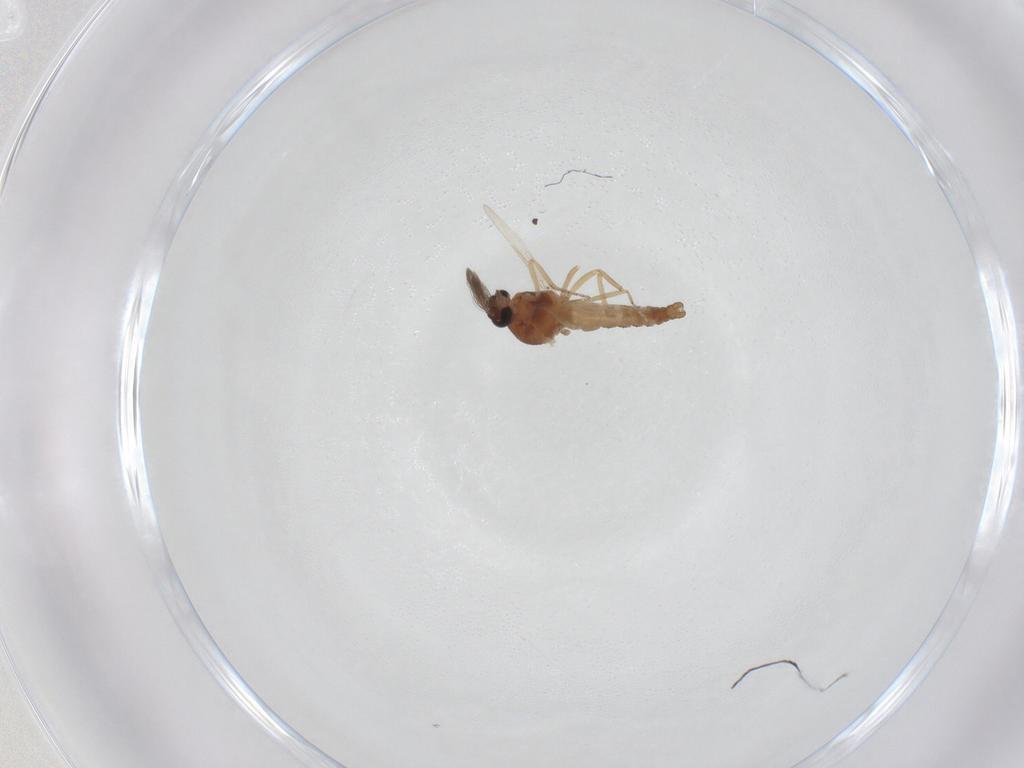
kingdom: Animalia
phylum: Arthropoda
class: Insecta
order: Diptera
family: Ceratopogonidae
